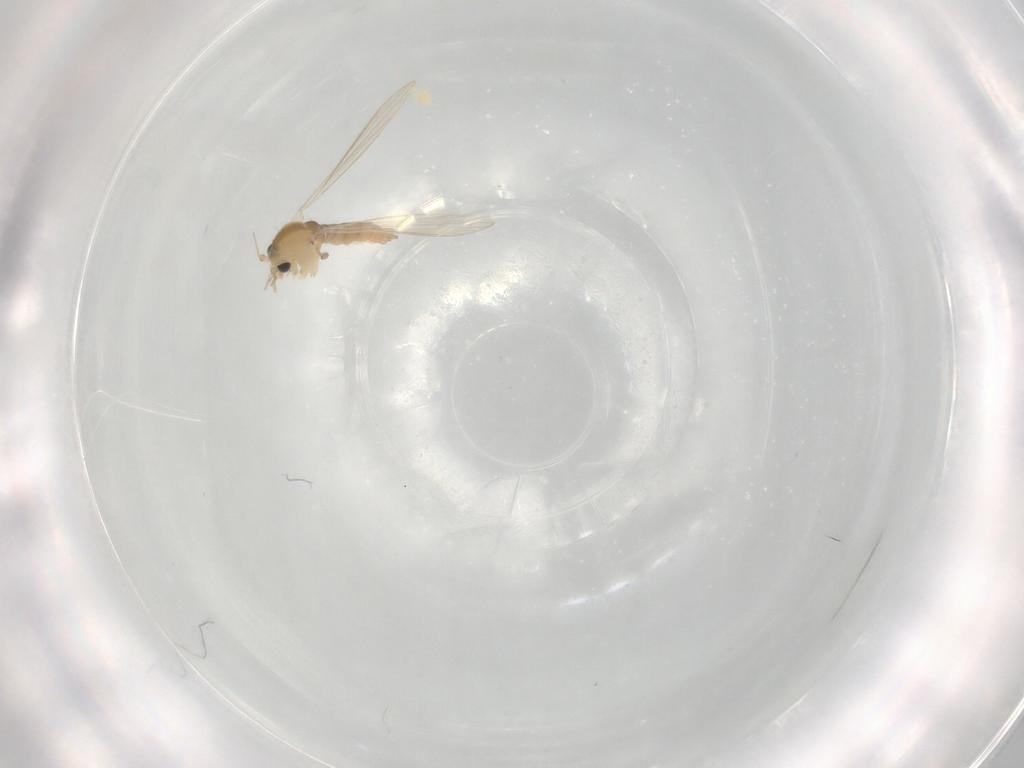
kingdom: Animalia
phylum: Arthropoda
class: Insecta
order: Diptera
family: Psychodidae
